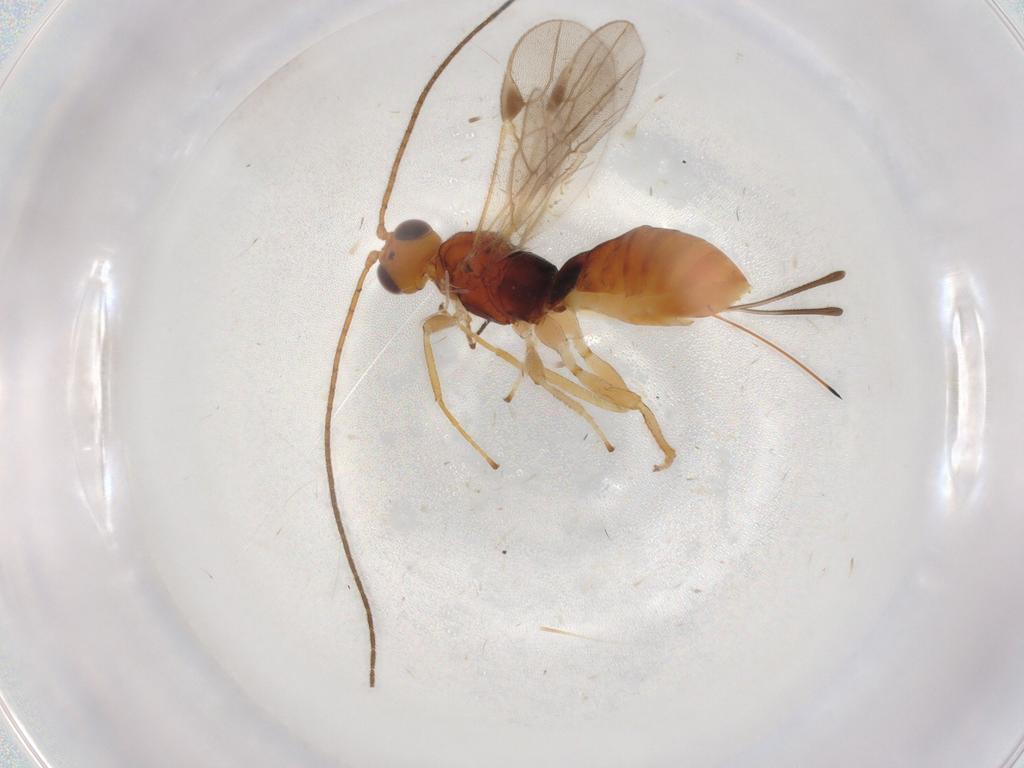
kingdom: Animalia
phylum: Arthropoda
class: Insecta
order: Hymenoptera
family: Braconidae
